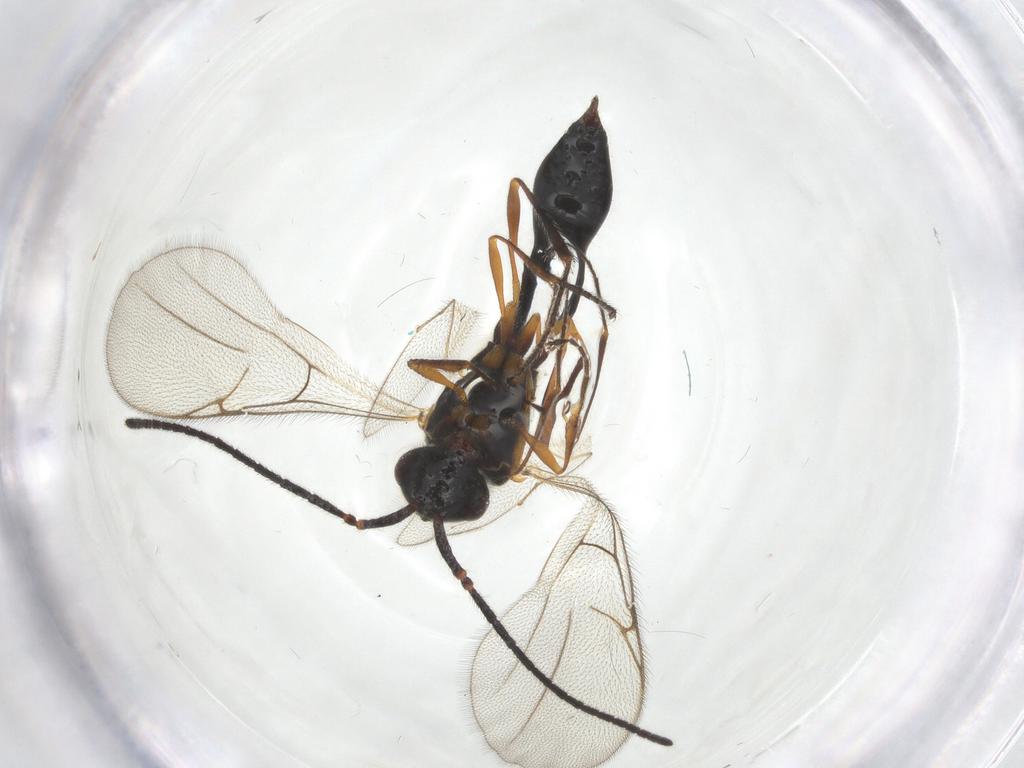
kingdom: Animalia
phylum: Arthropoda
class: Insecta
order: Hymenoptera
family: Diapriidae
